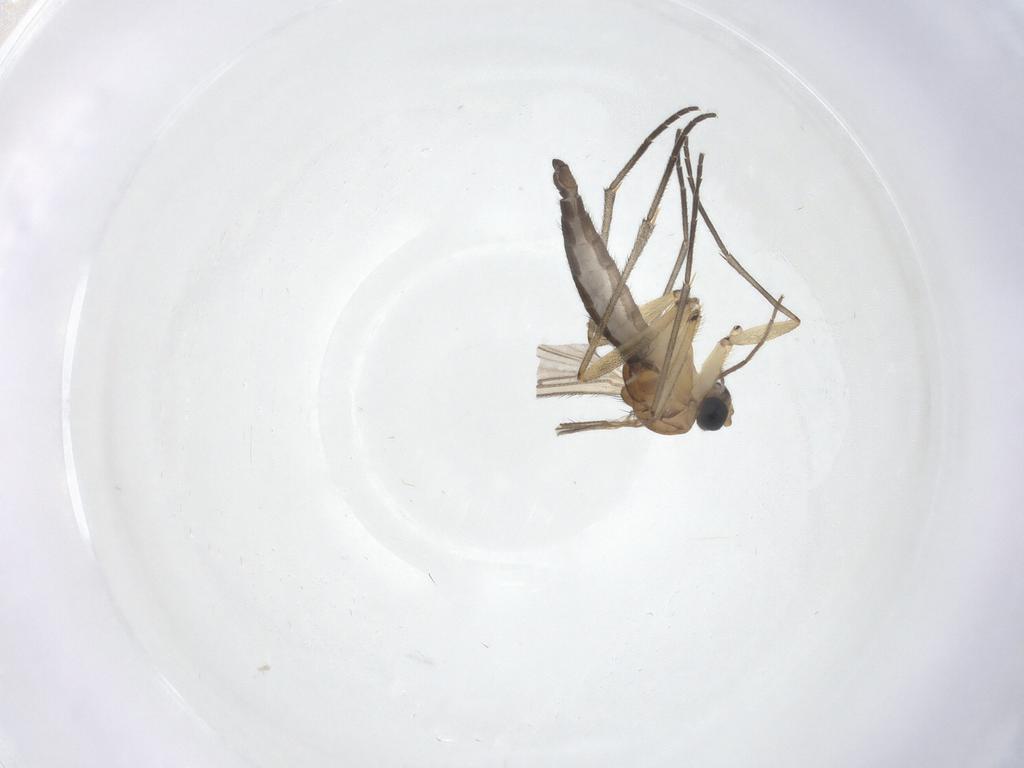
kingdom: Animalia
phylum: Arthropoda
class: Insecta
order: Diptera
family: Sciaridae
